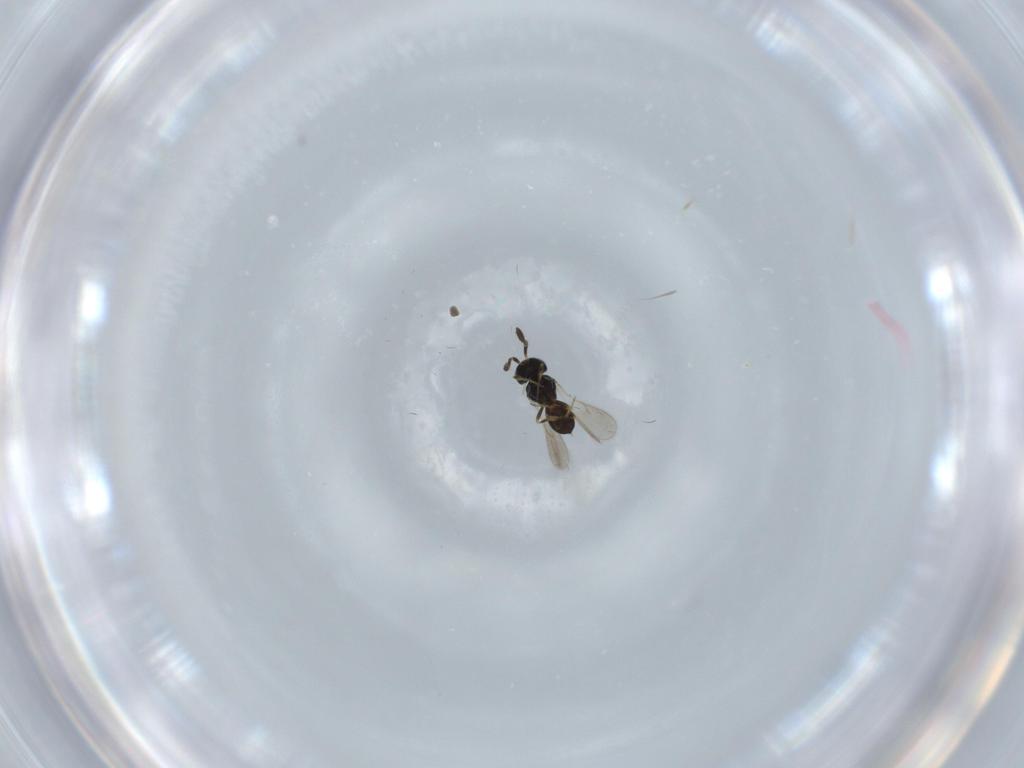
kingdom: Animalia
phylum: Arthropoda
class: Insecta
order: Hymenoptera
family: Scelionidae
